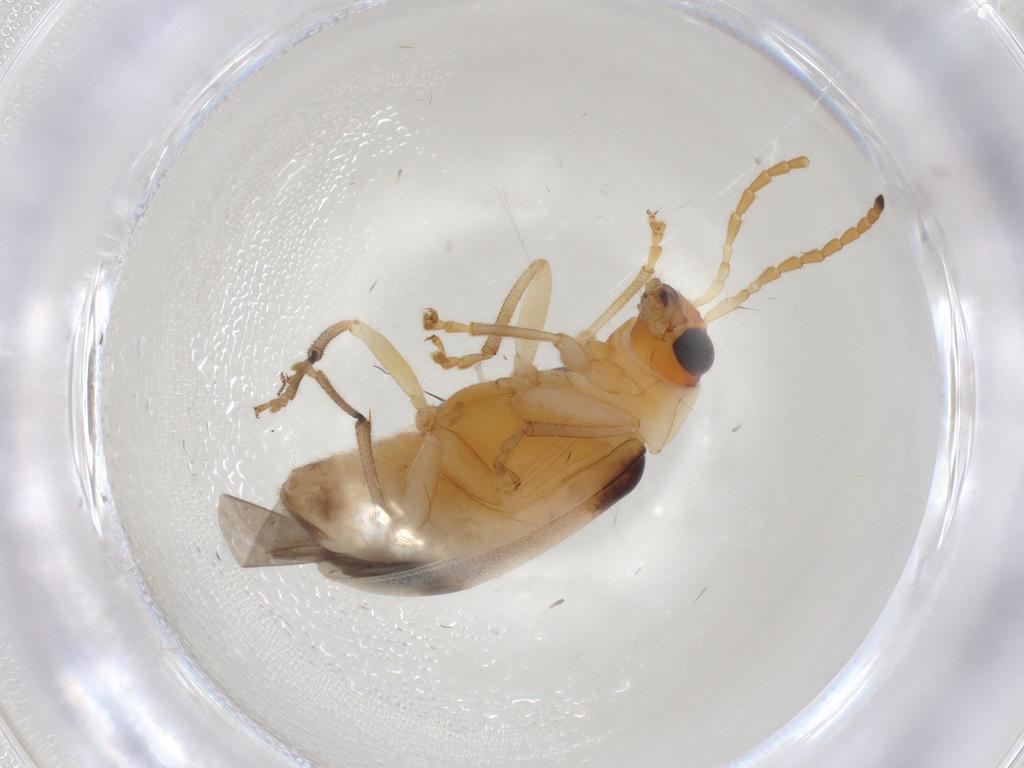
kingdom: Animalia
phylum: Arthropoda
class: Insecta
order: Coleoptera
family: Chrysomelidae
